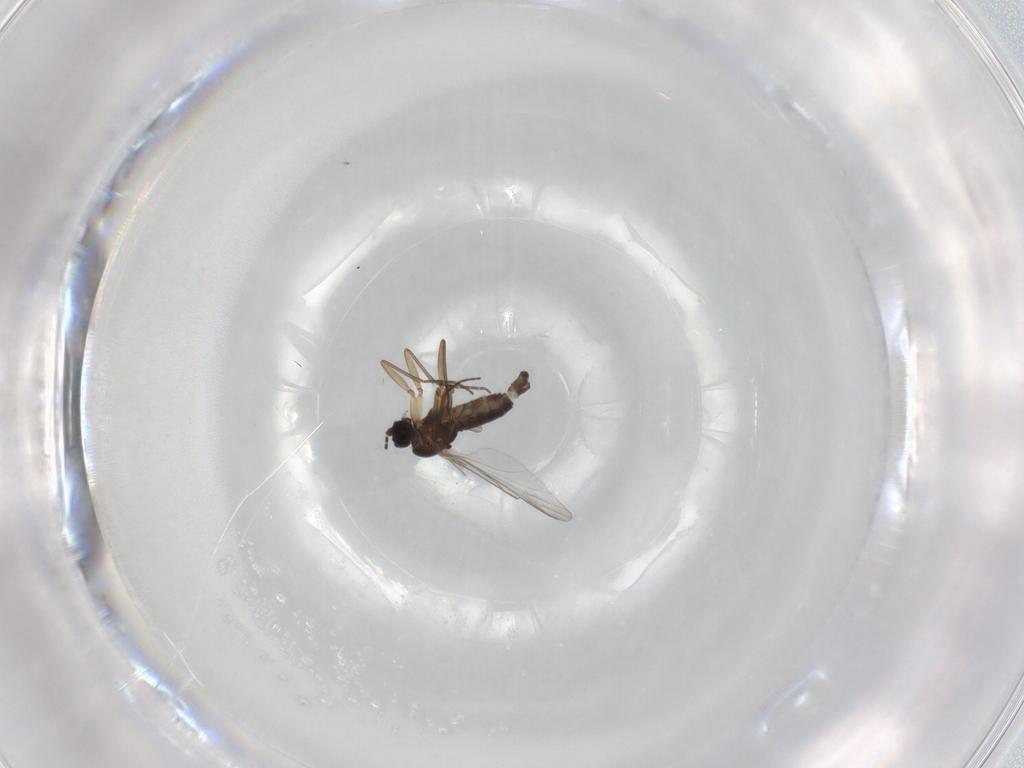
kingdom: Animalia
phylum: Arthropoda
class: Insecta
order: Diptera
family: Sciaridae
